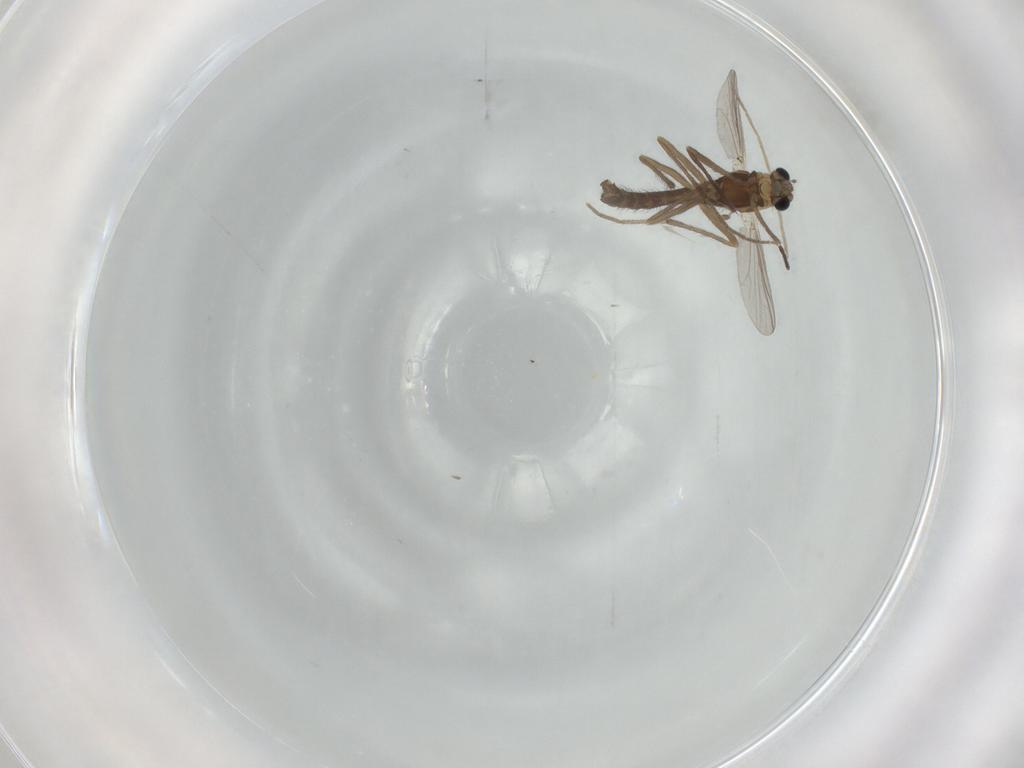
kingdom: Animalia
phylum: Arthropoda
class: Insecta
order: Diptera
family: Chironomidae
